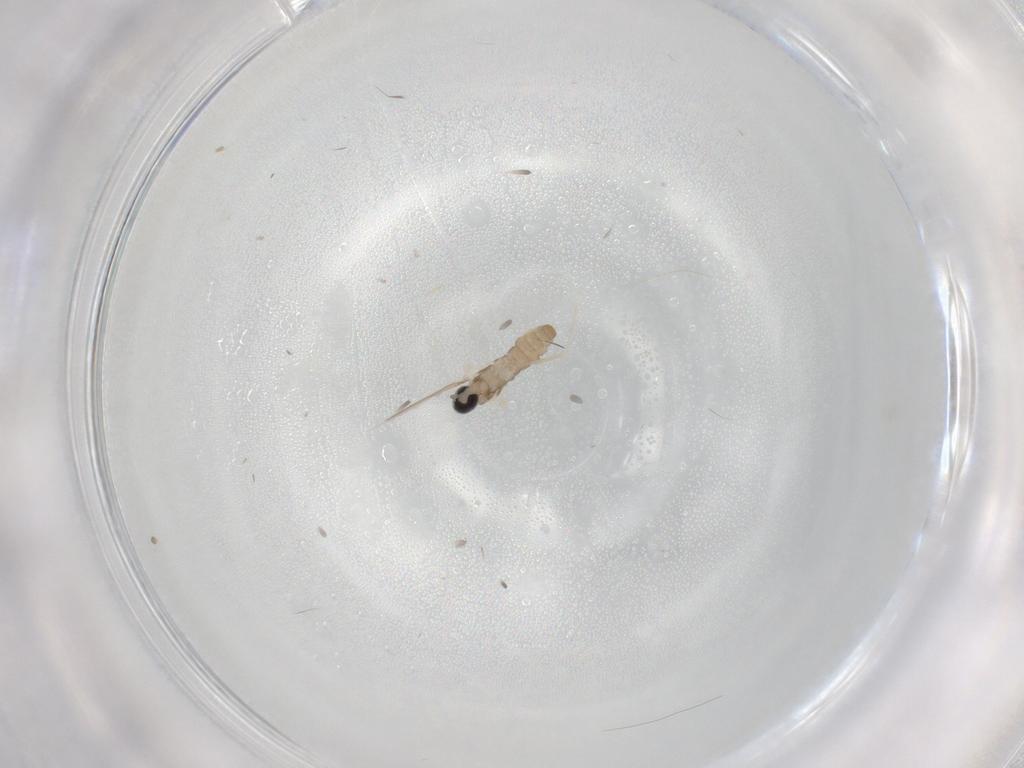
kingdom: Animalia
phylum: Arthropoda
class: Insecta
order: Diptera
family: Cecidomyiidae
